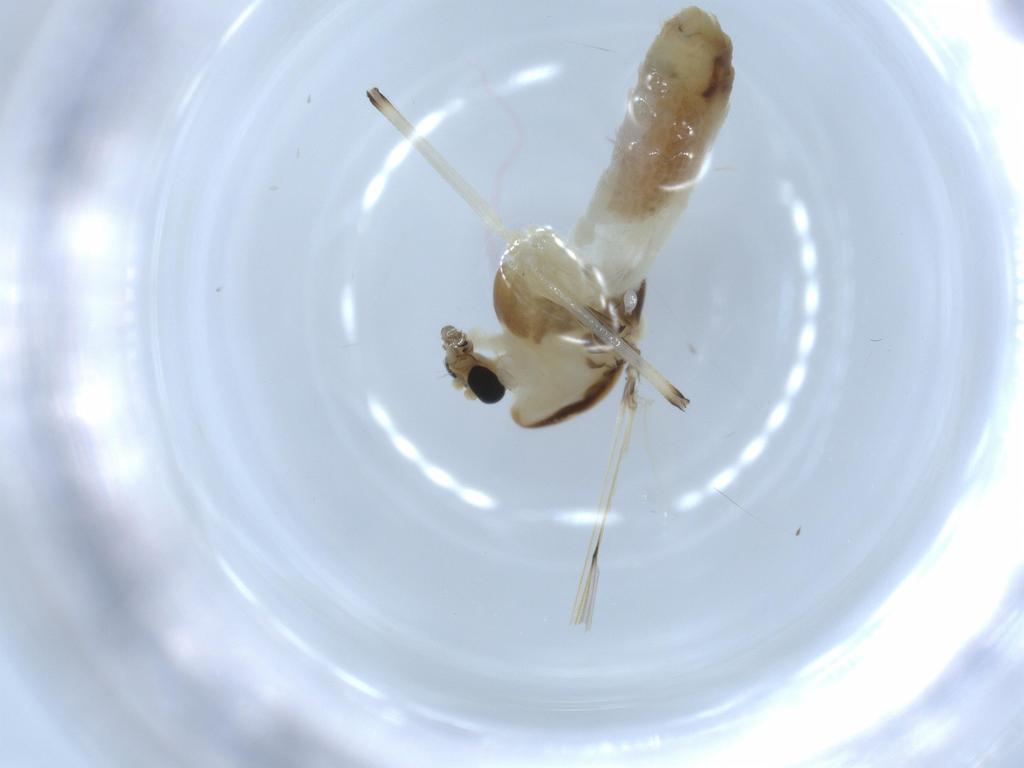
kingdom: Animalia
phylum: Arthropoda
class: Insecta
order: Diptera
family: Chironomidae
